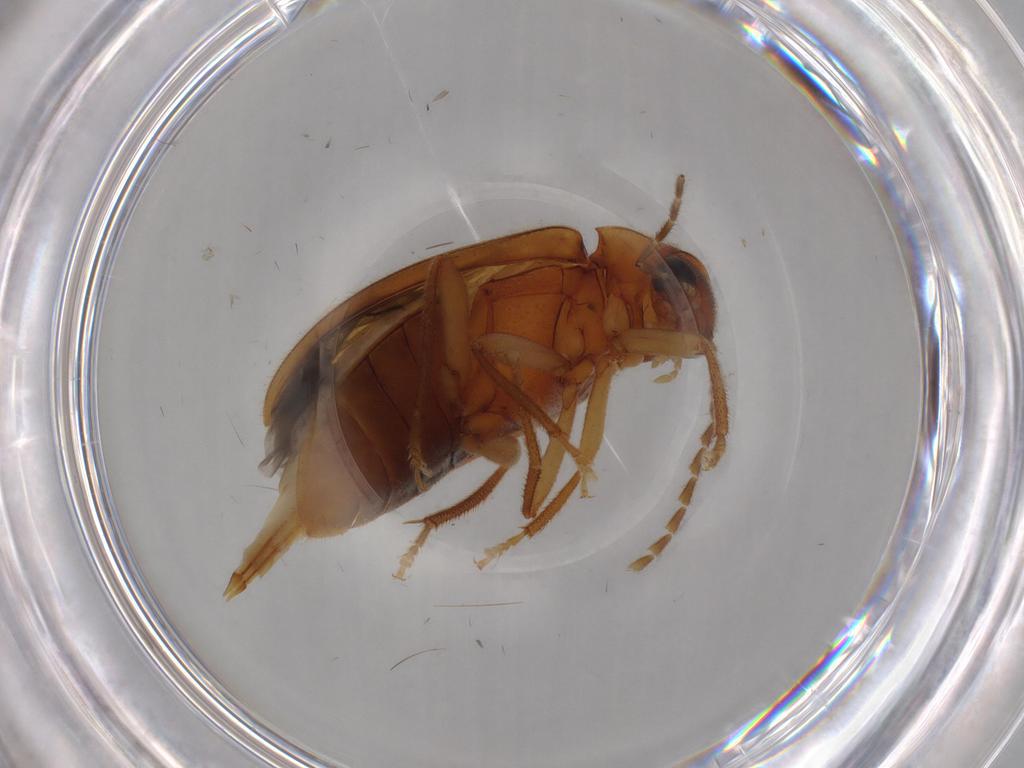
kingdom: Animalia
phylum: Arthropoda
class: Insecta
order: Coleoptera
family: Ptilodactylidae
